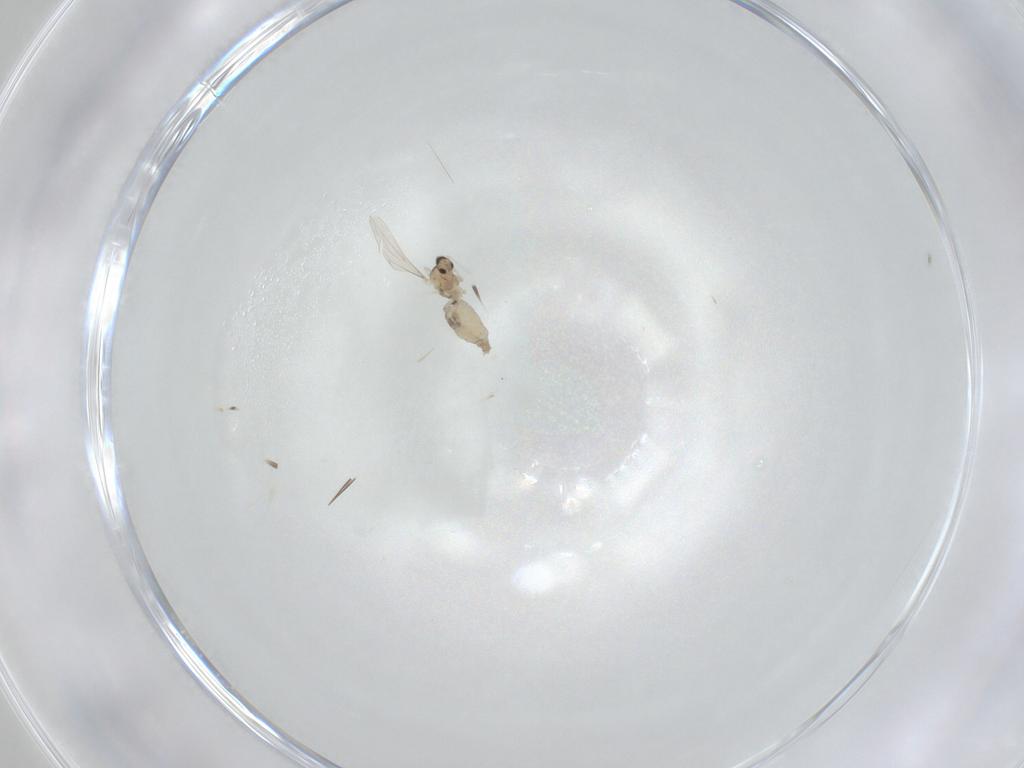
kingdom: Animalia
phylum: Arthropoda
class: Insecta
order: Diptera
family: Cecidomyiidae
